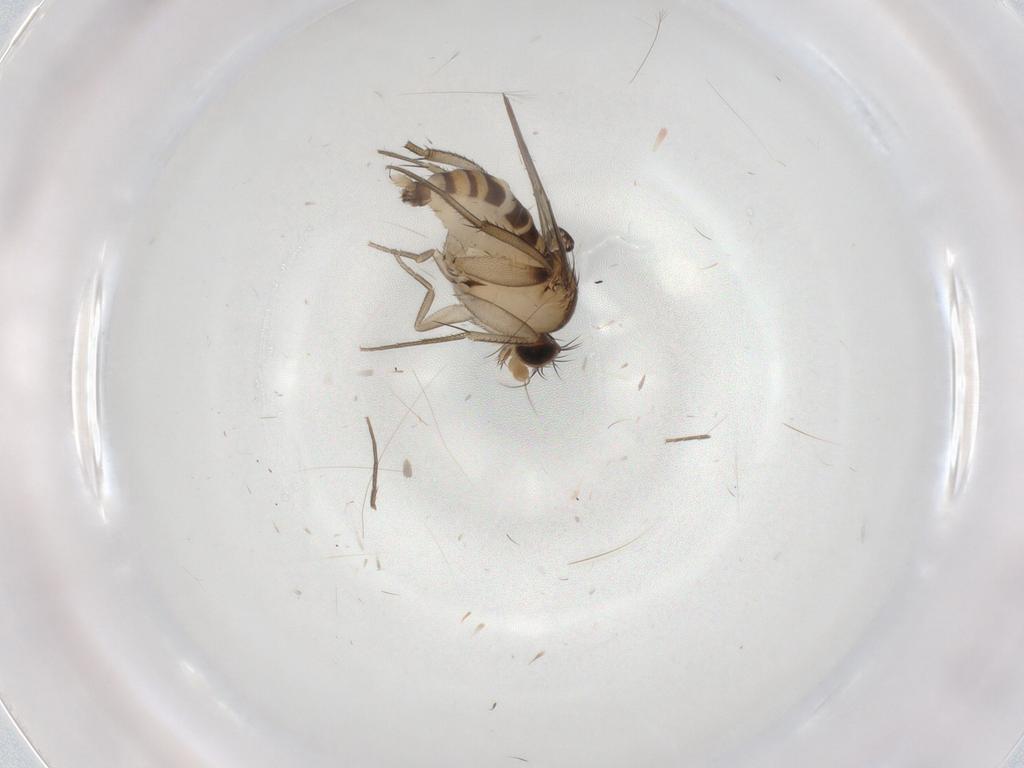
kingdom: Animalia
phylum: Arthropoda
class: Insecta
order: Diptera
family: Phoridae
